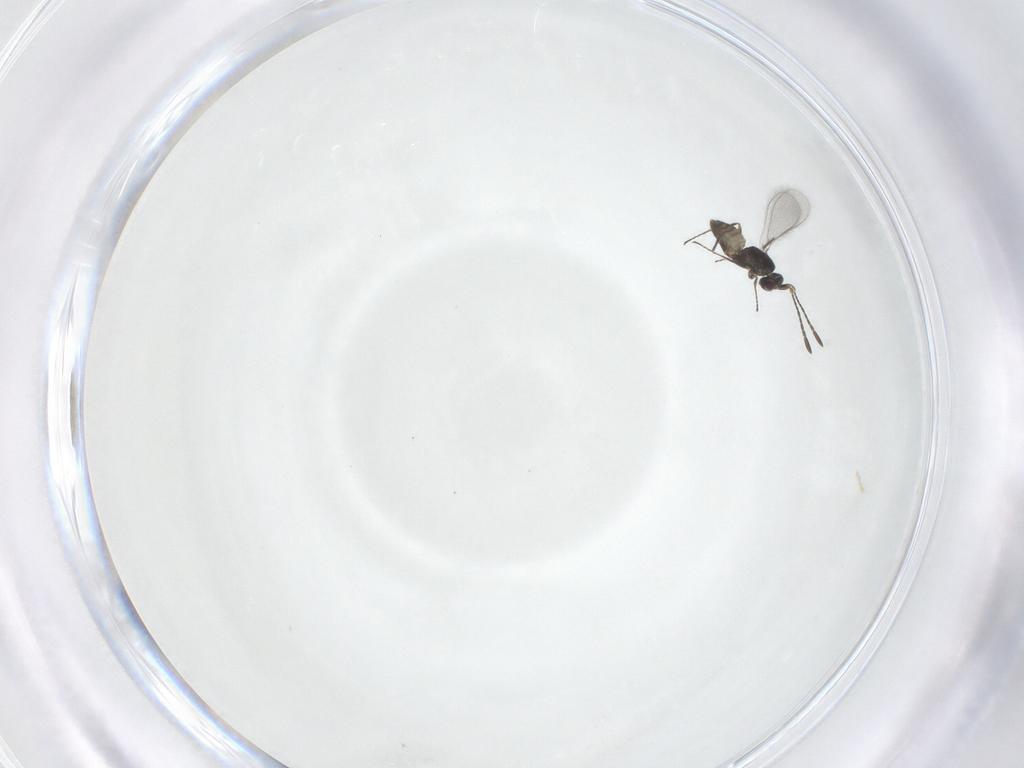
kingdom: Animalia
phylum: Arthropoda
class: Insecta
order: Hymenoptera
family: Mymaridae
